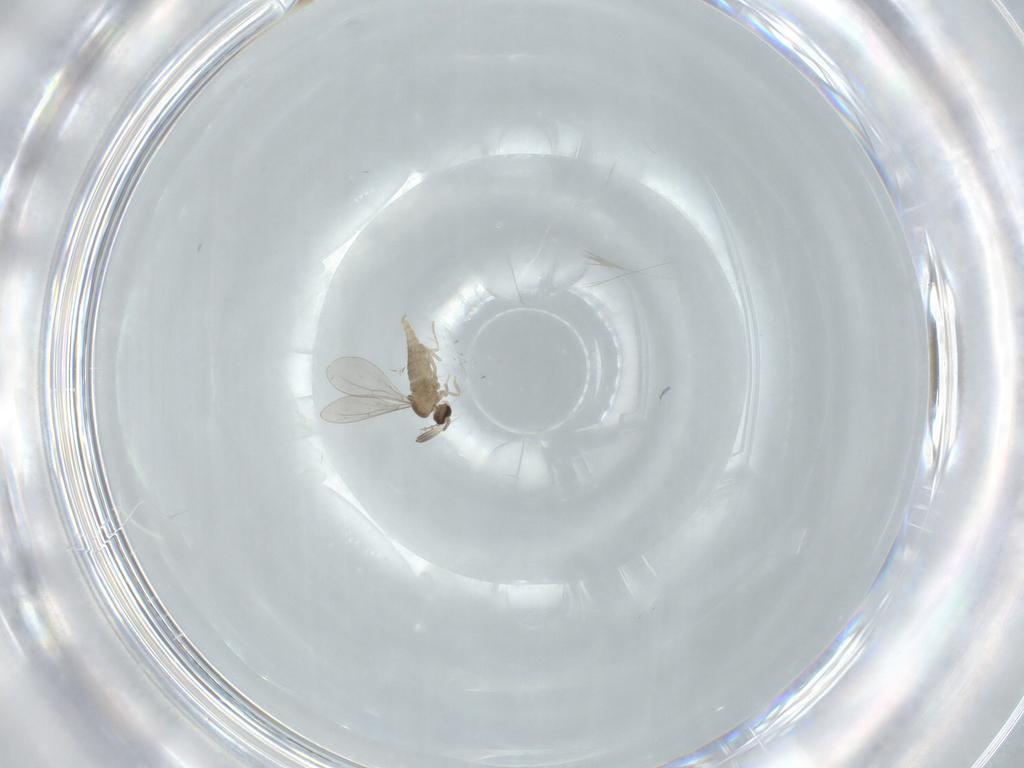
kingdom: Animalia
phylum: Arthropoda
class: Insecta
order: Diptera
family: Cecidomyiidae
